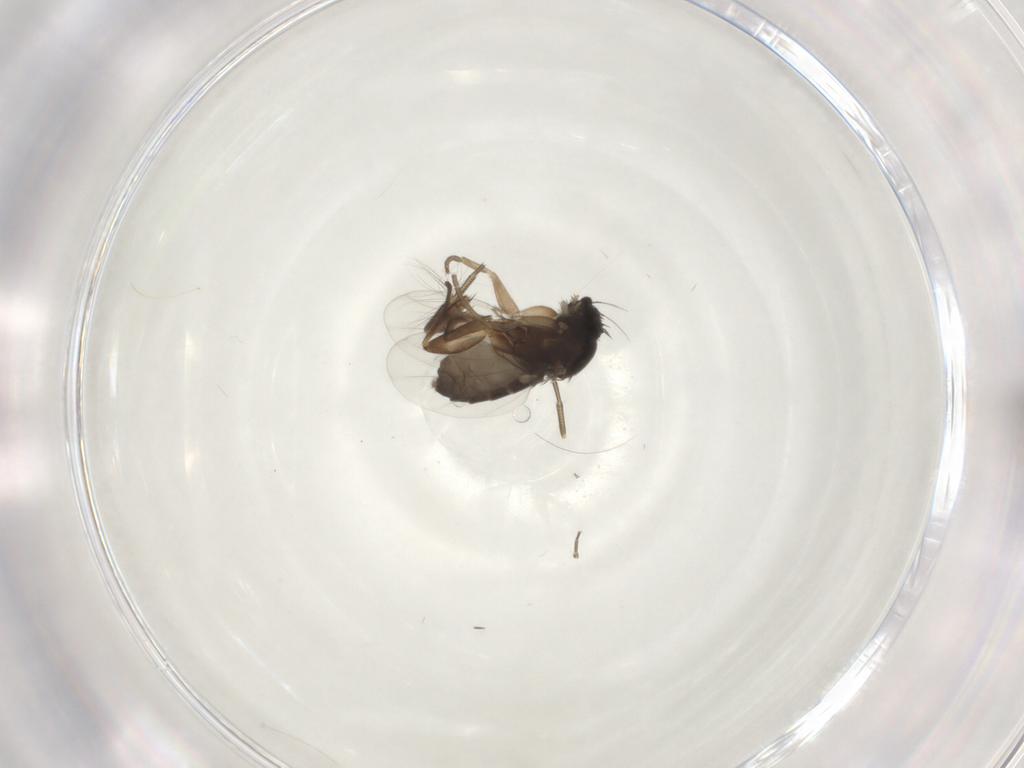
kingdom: Animalia
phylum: Arthropoda
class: Insecta
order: Diptera
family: Phoridae
